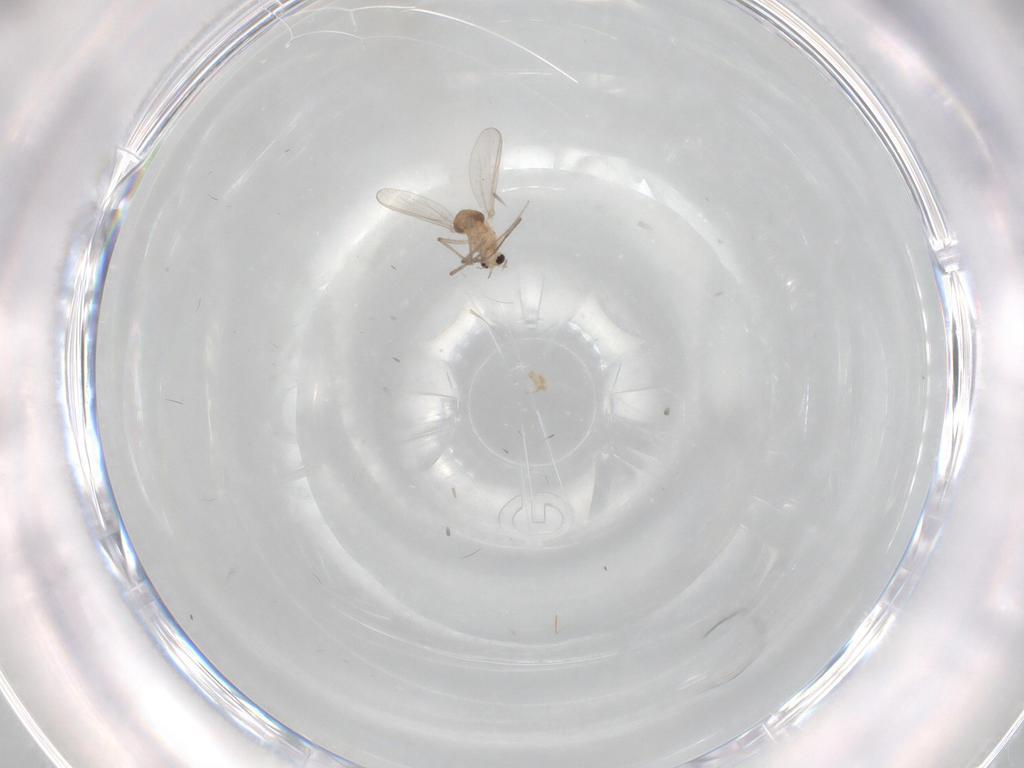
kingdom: Animalia
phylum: Arthropoda
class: Insecta
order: Diptera
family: Chironomidae
